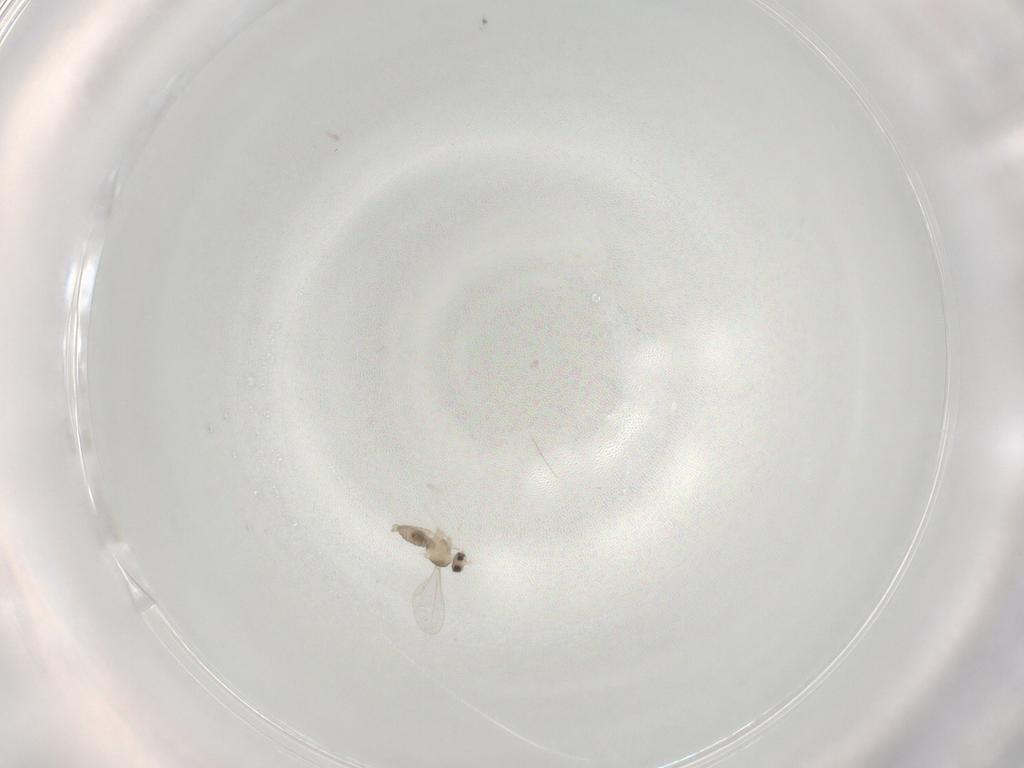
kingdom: Animalia
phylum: Arthropoda
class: Insecta
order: Diptera
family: Cecidomyiidae
